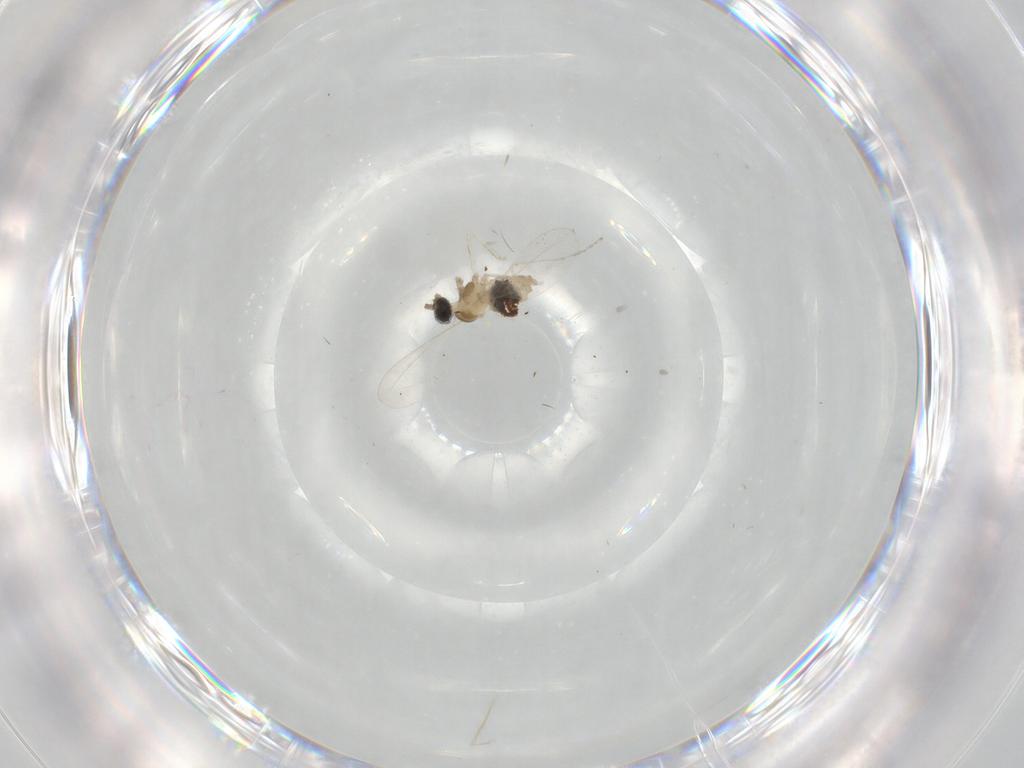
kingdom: Animalia
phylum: Arthropoda
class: Insecta
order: Diptera
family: Cecidomyiidae
